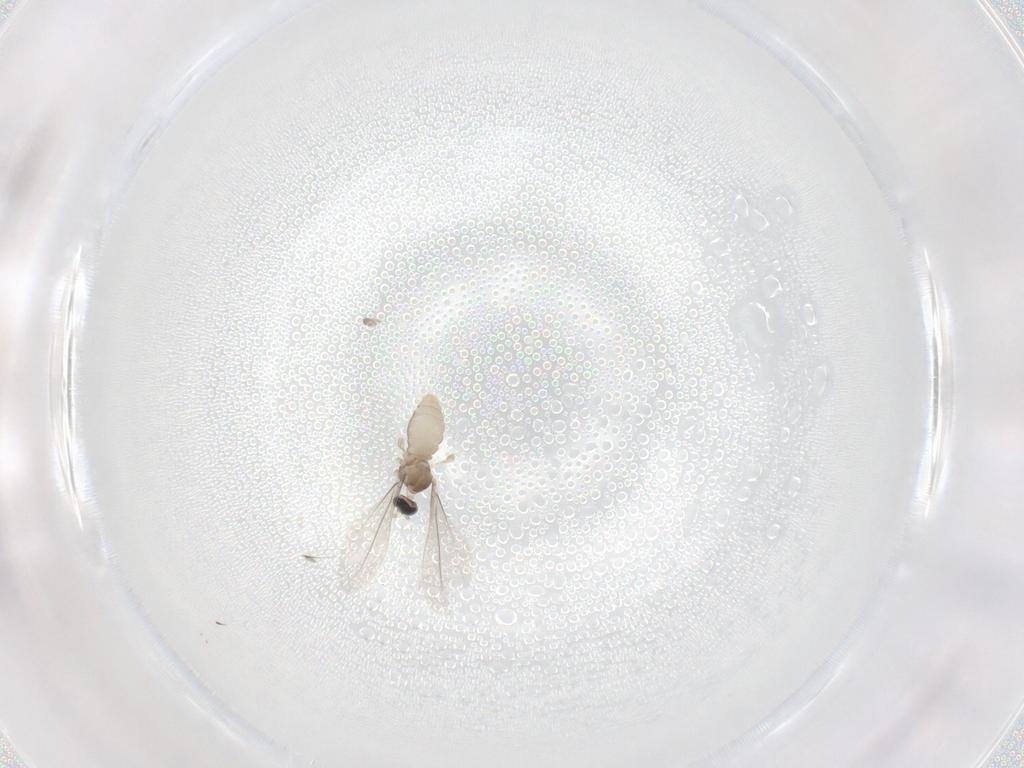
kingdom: Animalia
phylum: Arthropoda
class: Insecta
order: Diptera
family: Cecidomyiidae
